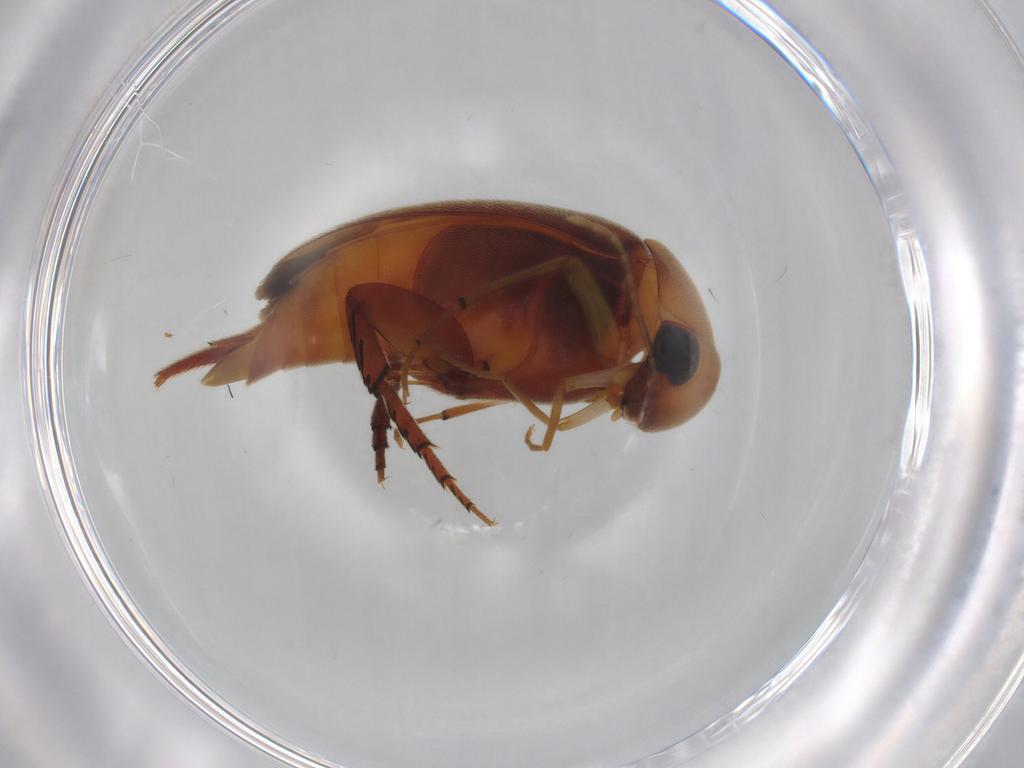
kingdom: Animalia
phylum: Arthropoda
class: Insecta
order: Coleoptera
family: Mordellidae
